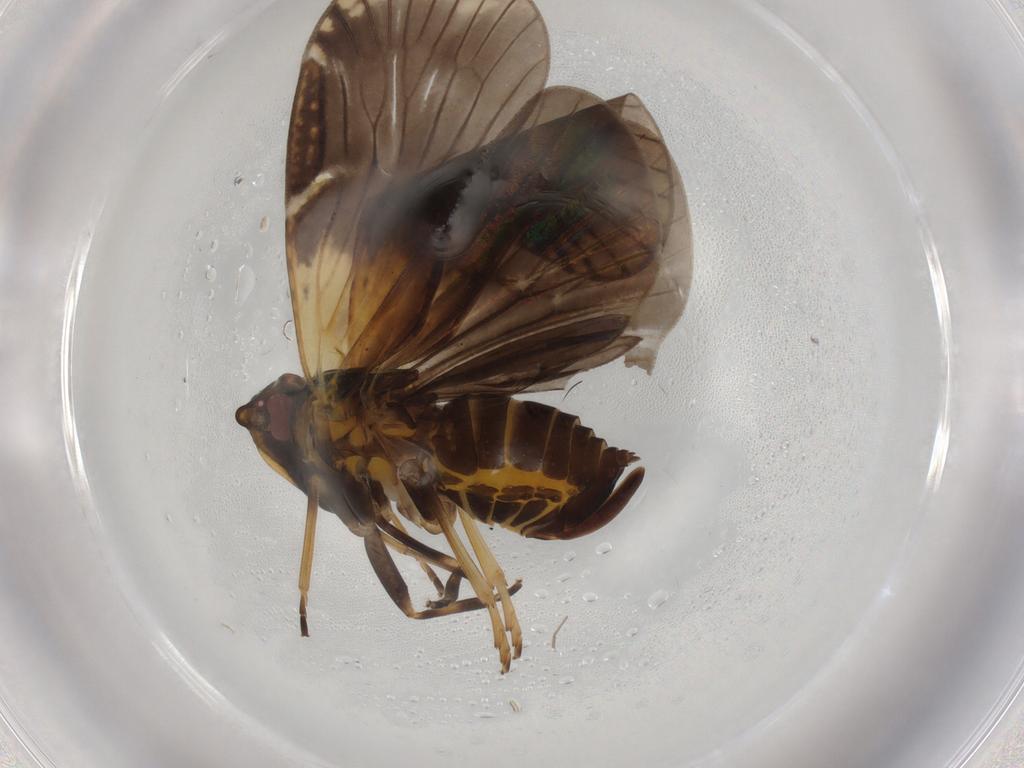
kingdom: Animalia
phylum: Arthropoda
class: Insecta
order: Hemiptera
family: Cixiidae
